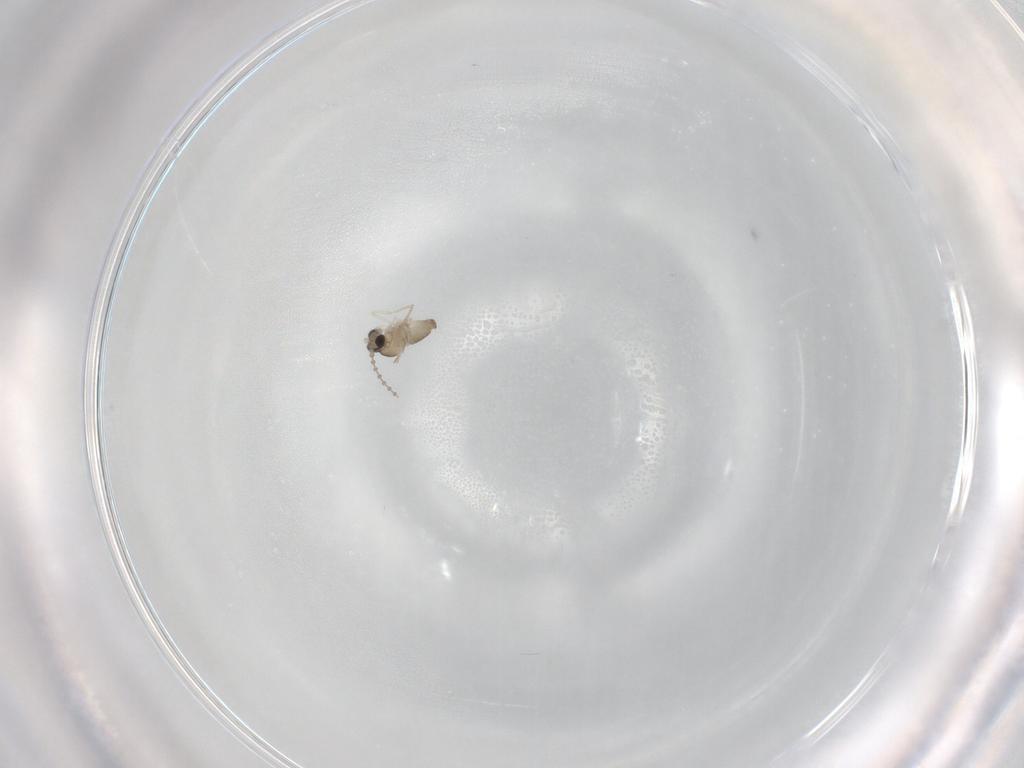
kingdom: Animalia
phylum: Arthropoda
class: Insecta
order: Diptera
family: Cecidomyiidae
